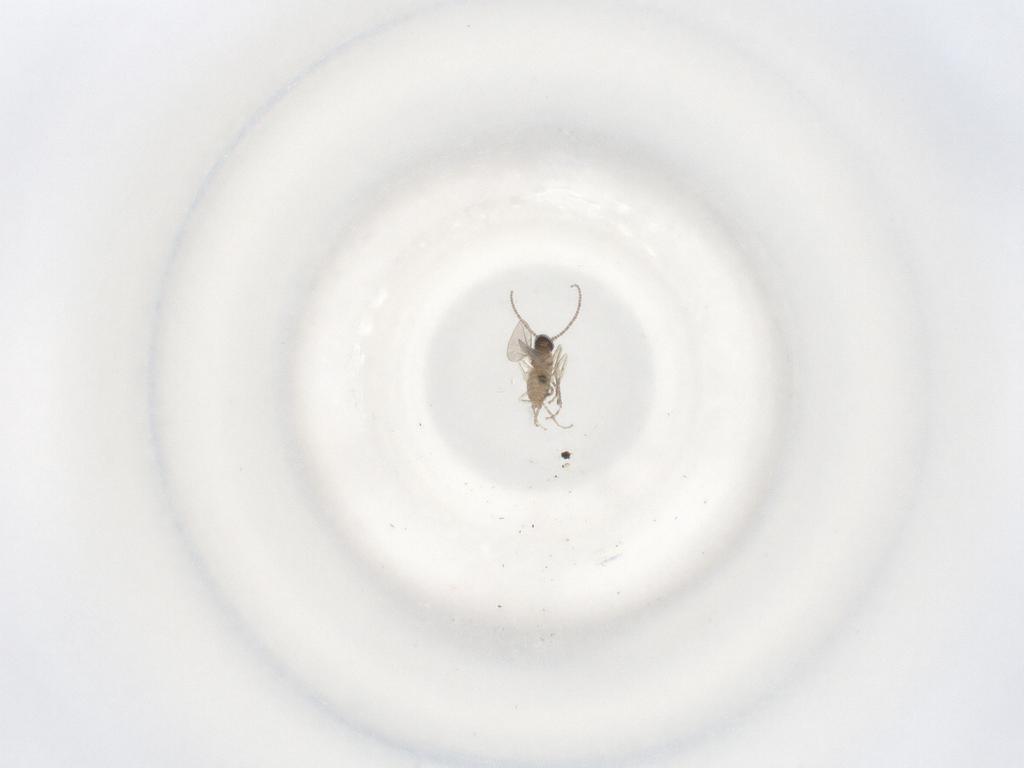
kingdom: Animalia
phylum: Arthropoda
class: Insecta
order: Diptera
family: Cecidomyiidae
